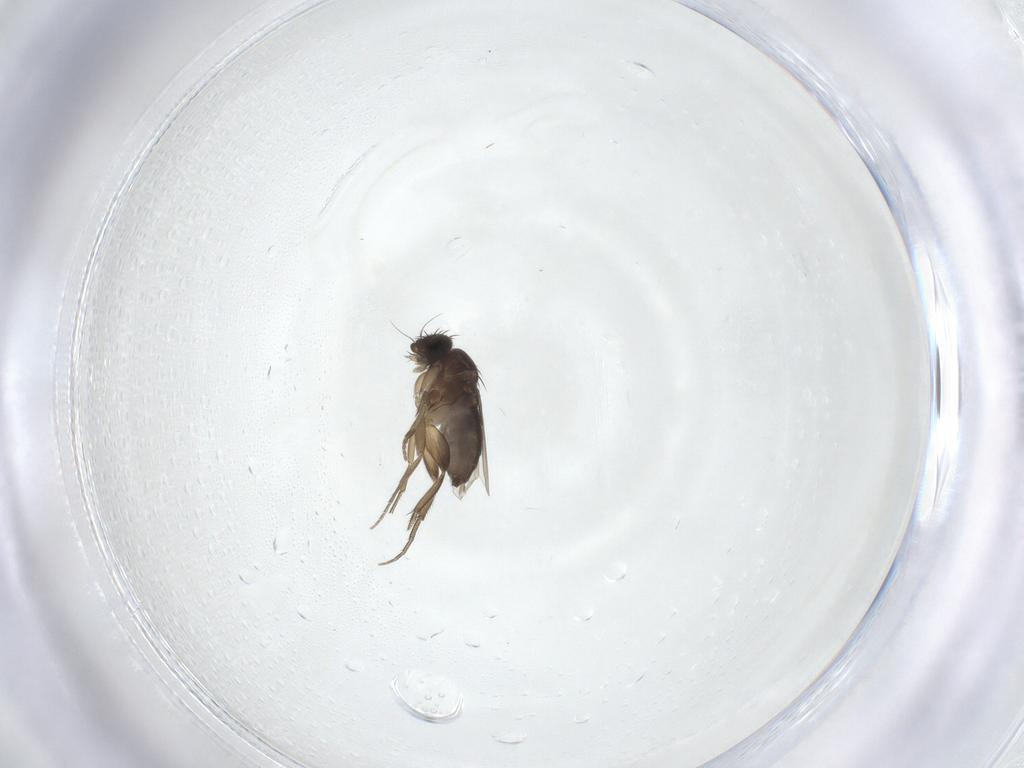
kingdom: Animalia
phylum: Arthropoda
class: Insecta
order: Diptera
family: Phoridae
